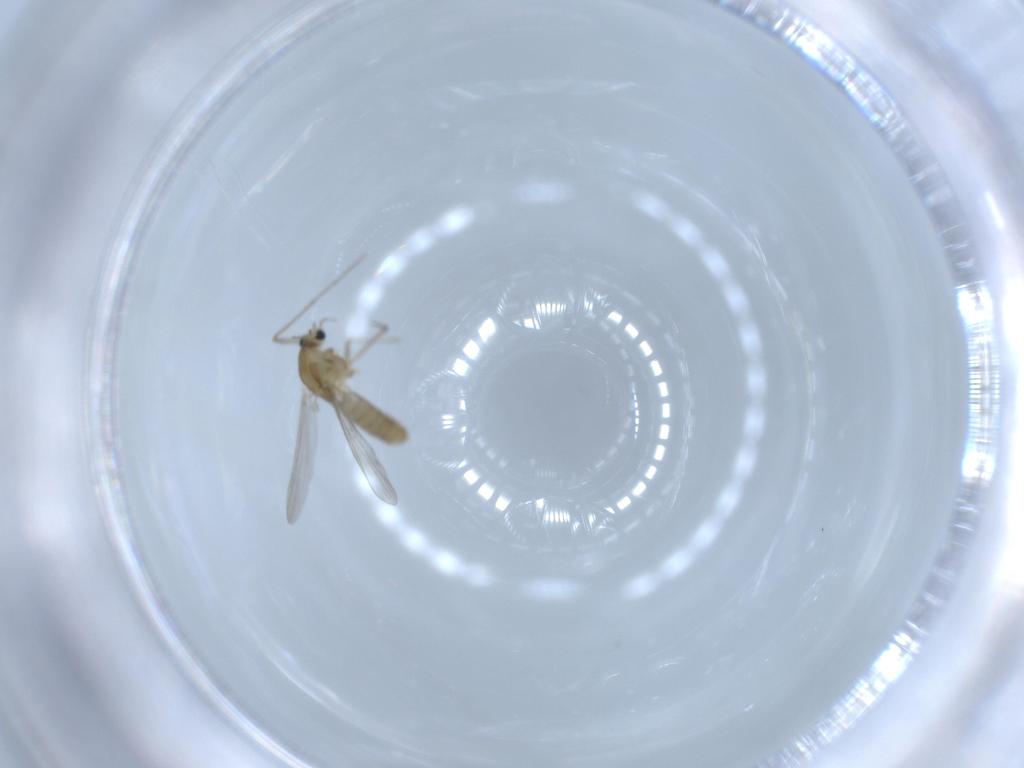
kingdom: Animalia
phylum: Arthropoda
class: Insecta
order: Diptera
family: Chironomidae
